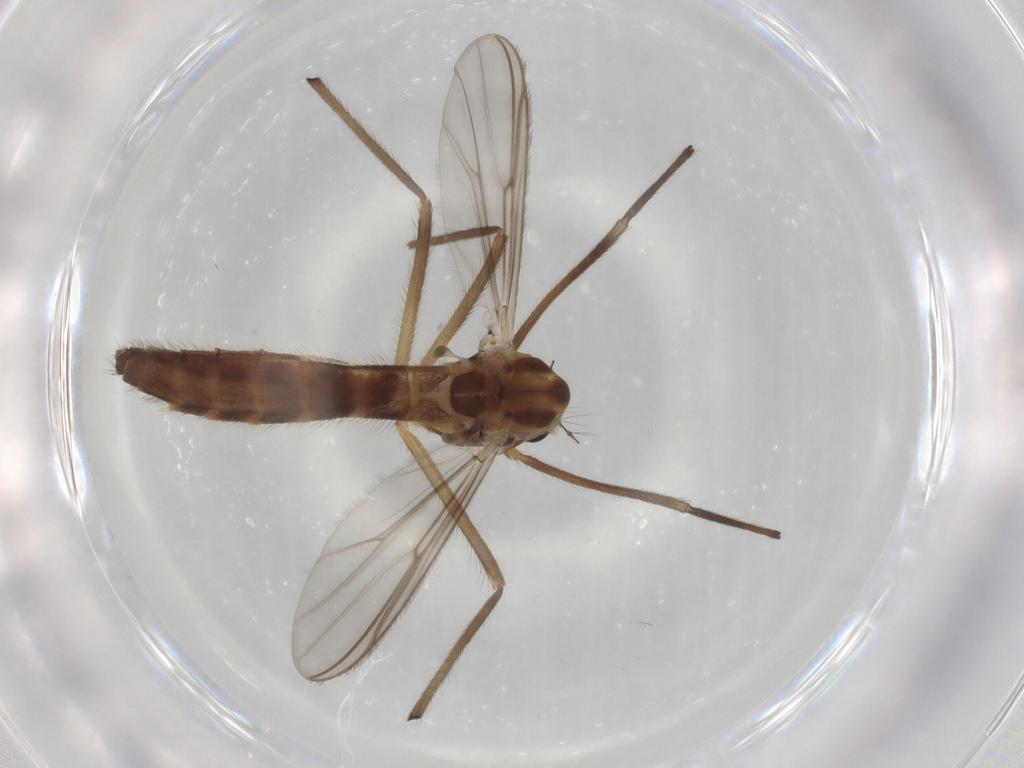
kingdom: Animalia
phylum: Arthropoda
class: Insecta
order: Diptera
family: Chironomidae
